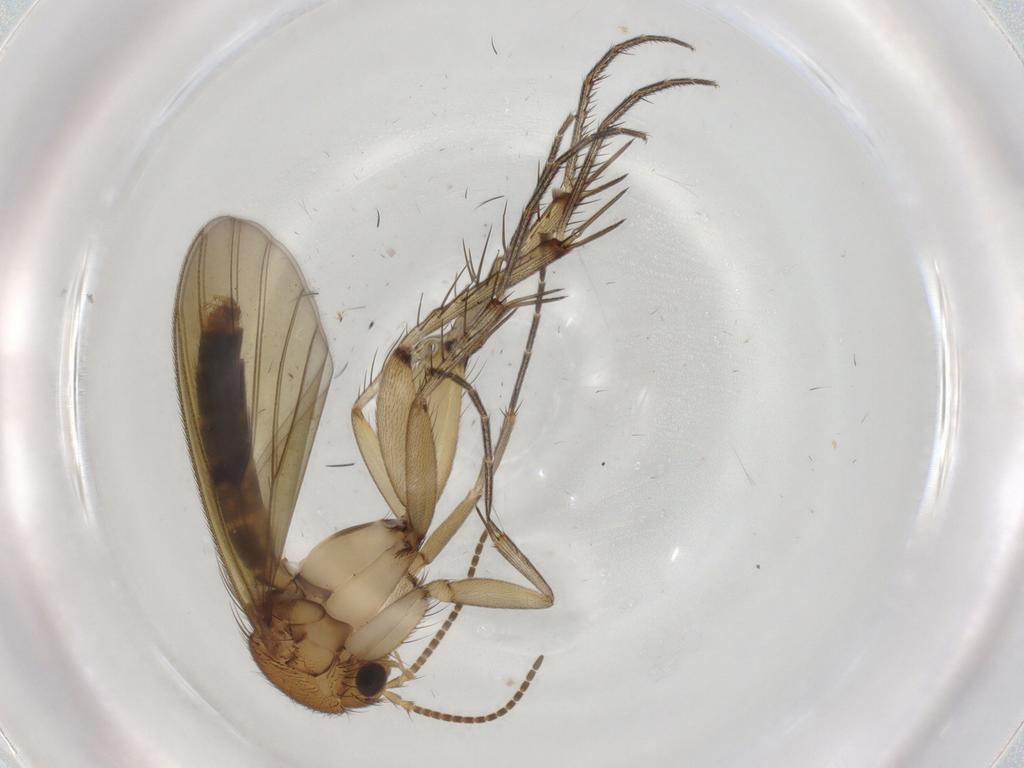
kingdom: Animalia
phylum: Arthropoda
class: Insecta
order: Diptera
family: Mycetophilidae
